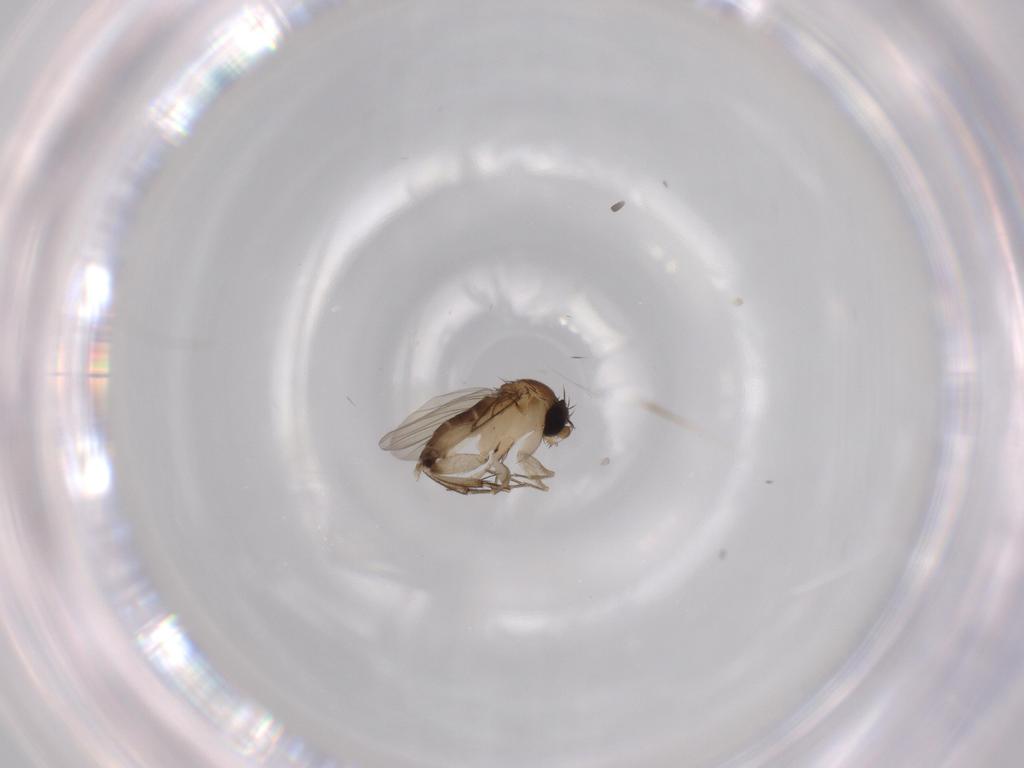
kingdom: Animalia
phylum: Arthropoda
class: Insecta
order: Diptera
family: Phoridae
